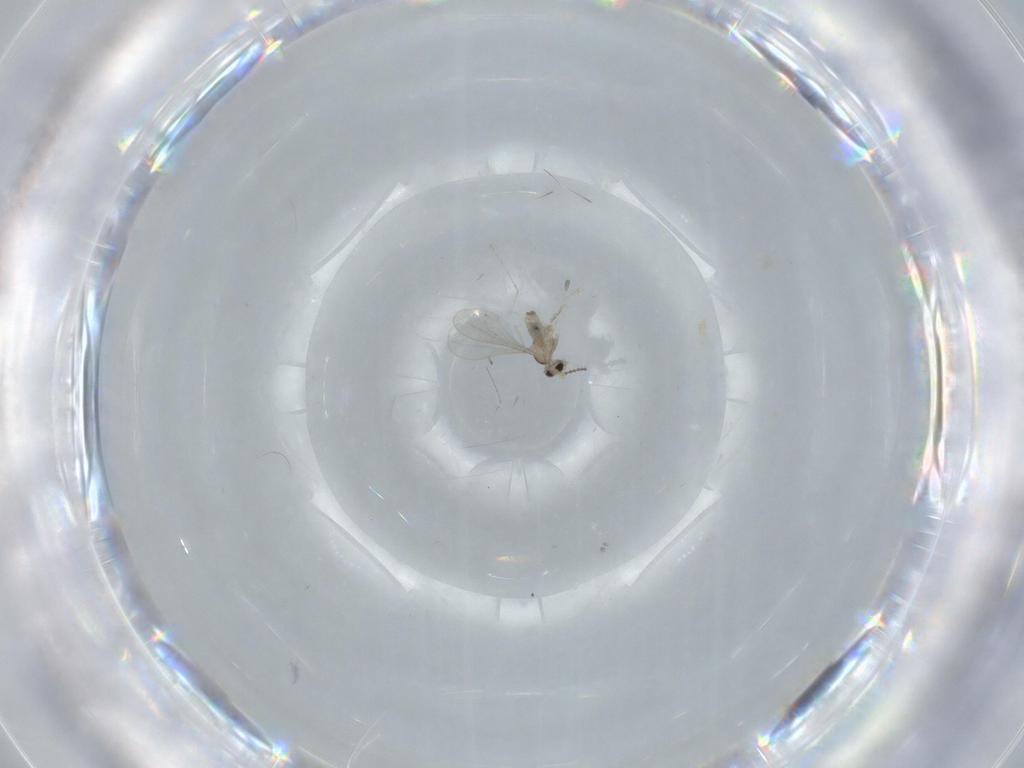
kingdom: Animalia
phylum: Arthropoda
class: Insecta
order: Diptera
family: Cecidomyiidae
